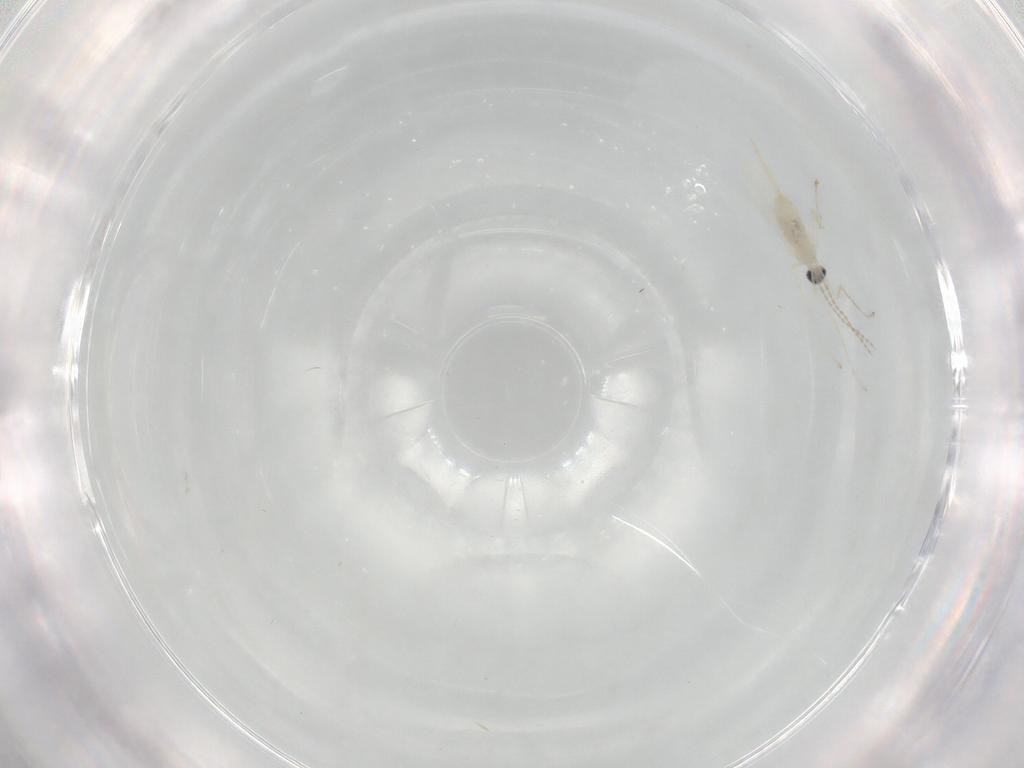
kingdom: Animalia
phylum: Arthropoda
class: Insecta
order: Diptera
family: Cecidomyiidae
